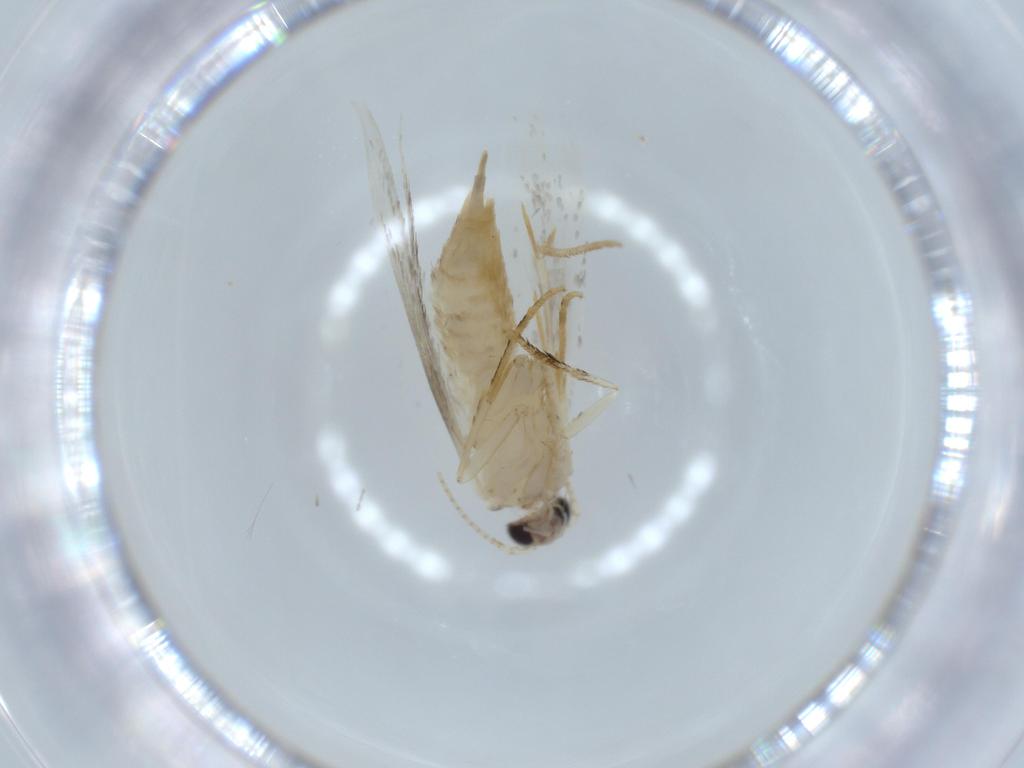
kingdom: Animalia
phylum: Arthropoda
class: Insecta
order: Lepidoptera
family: Tineidae
